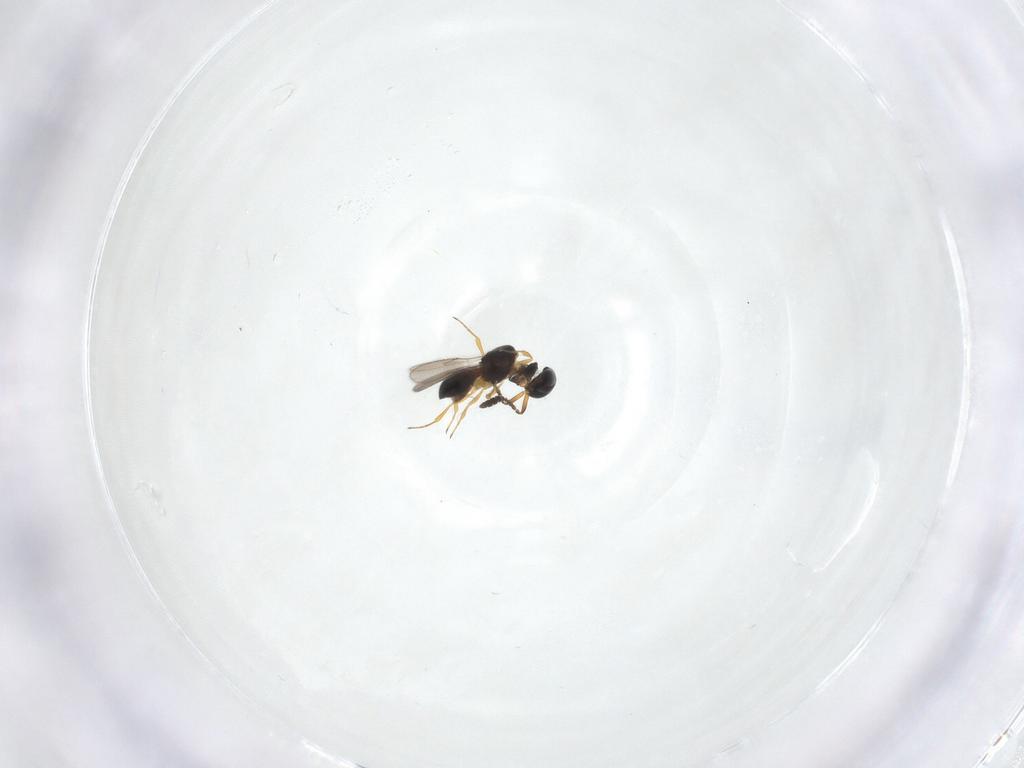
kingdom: Animalia
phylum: Arthropoda
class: Insecta
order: Hymenoptera
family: Scelionidae
